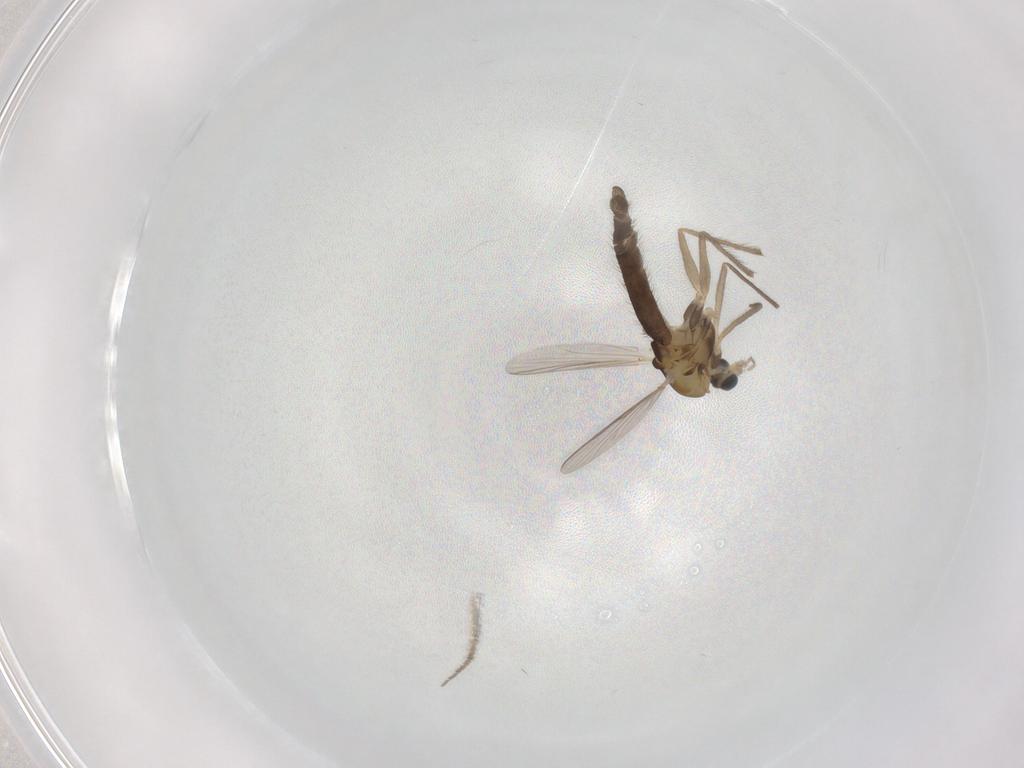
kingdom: Animalia
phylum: Arthropoda
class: Insecta
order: Diptera
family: Chironomidae
